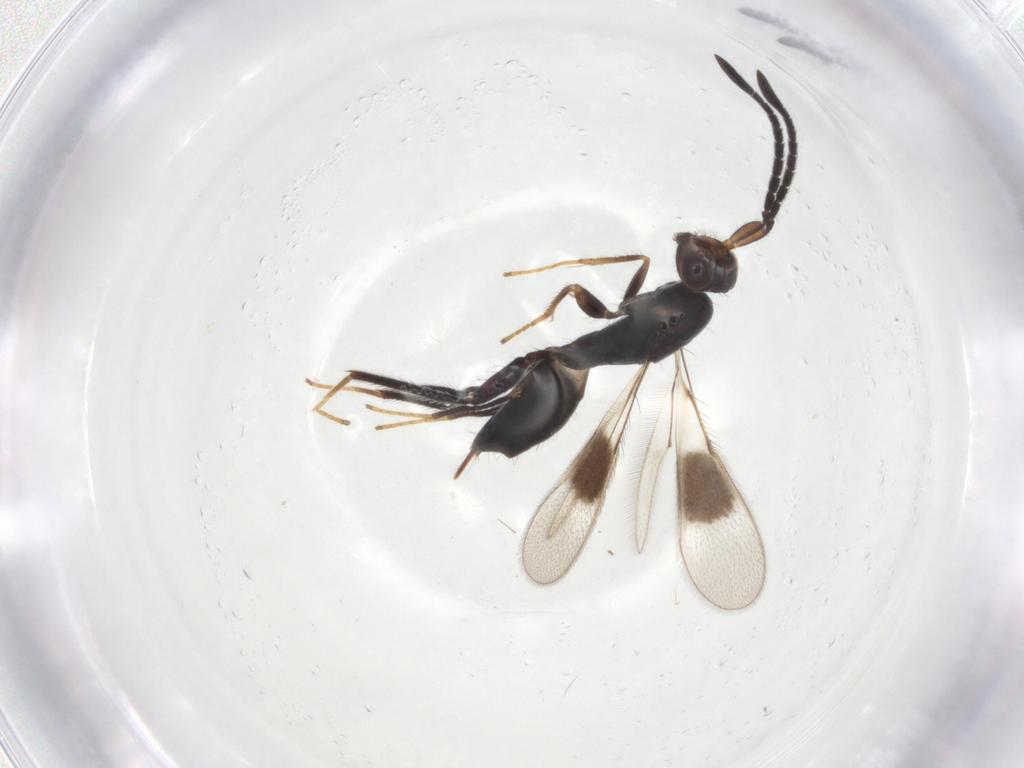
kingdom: Animalia
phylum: Arthropoda
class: Insecta
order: Hymenoptera
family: Mymaridae
